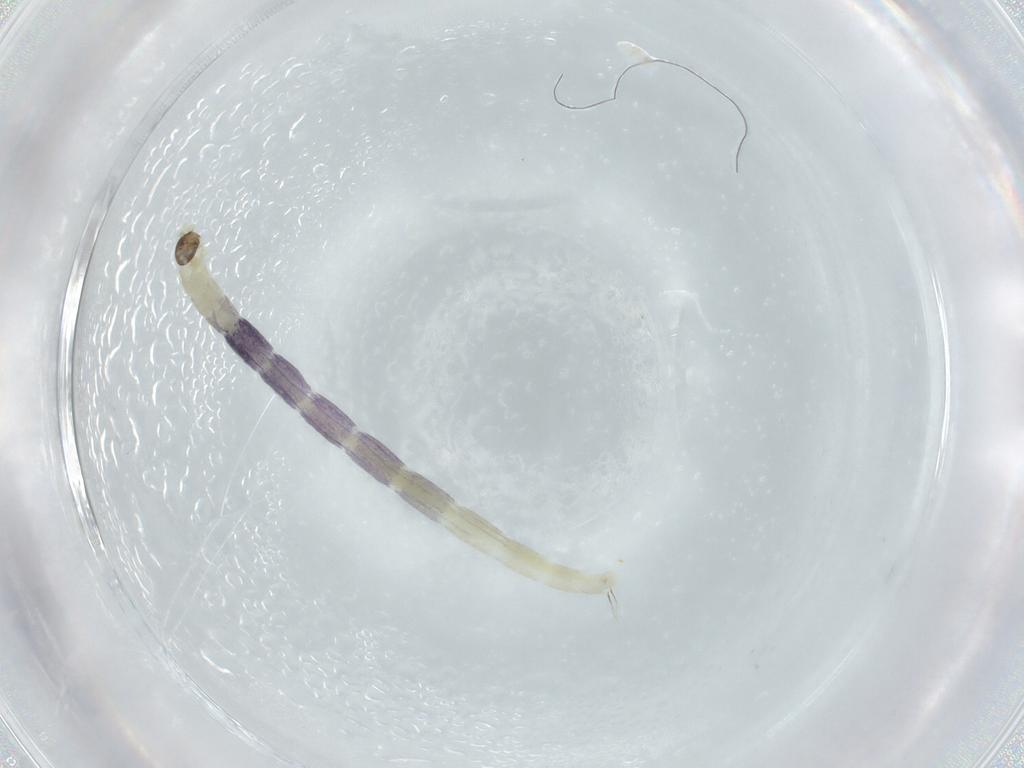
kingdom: Animalia
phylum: Arthropoda
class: Insecta
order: Diptera
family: Chironomidae
